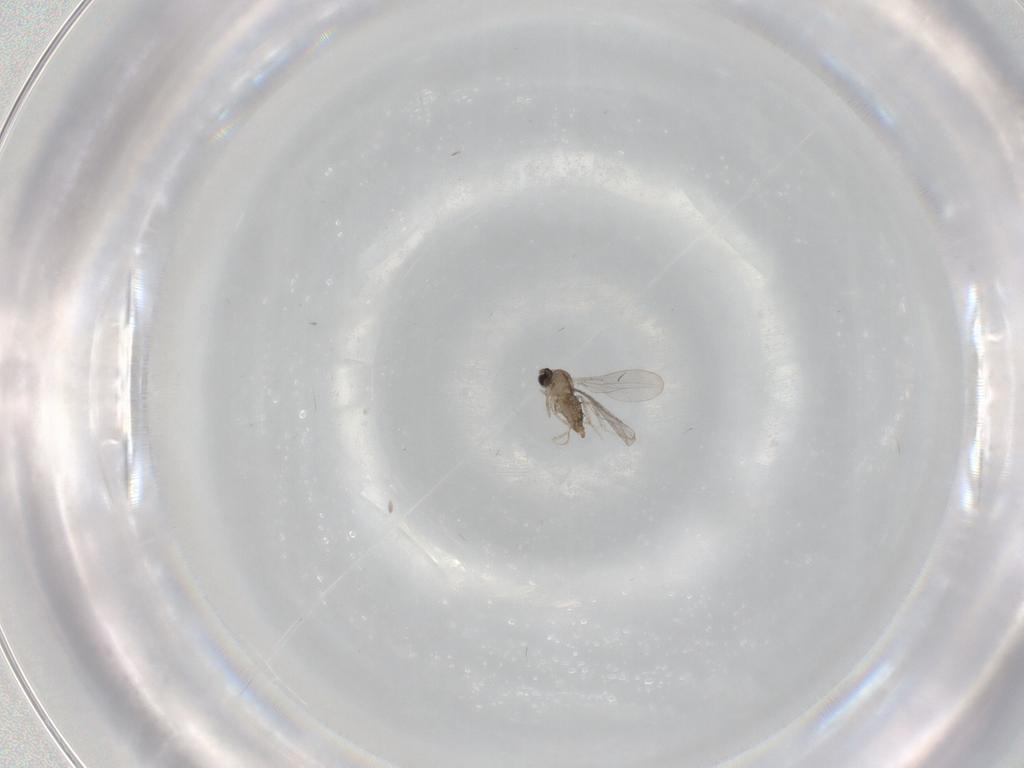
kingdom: Animalia
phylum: Arthropoda
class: Insecta
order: Diptera
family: Cecidomyiidae
